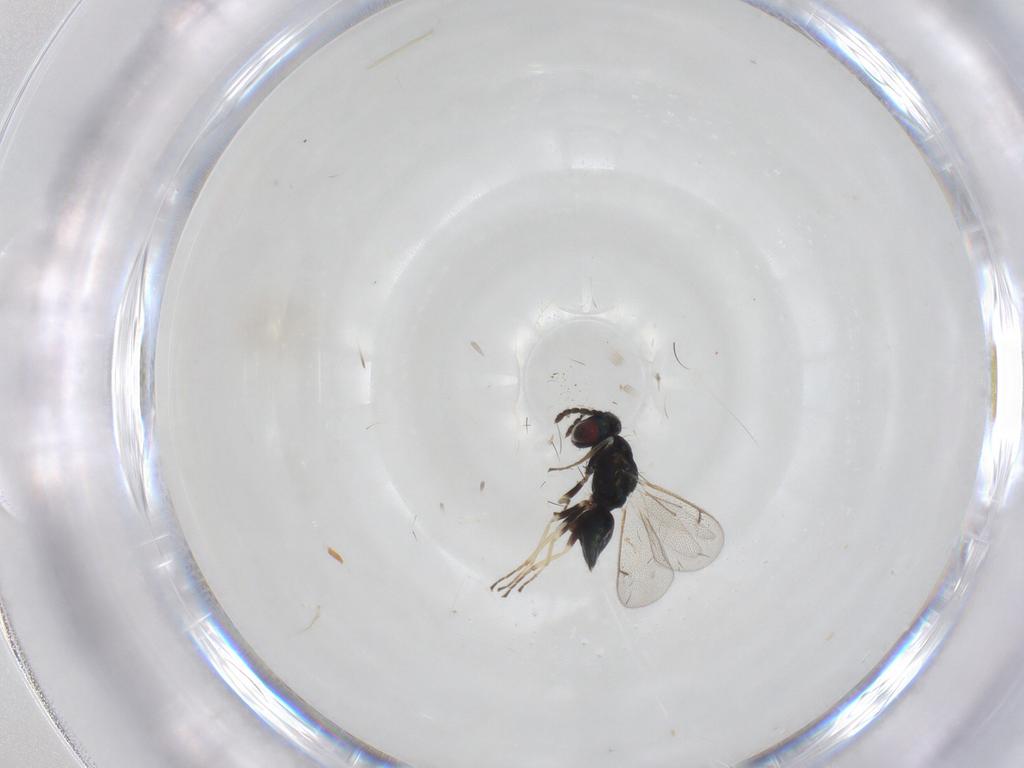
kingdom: Animalia
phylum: Arthropoda
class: Insecta
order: Hymenoptera
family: Eulophidae
